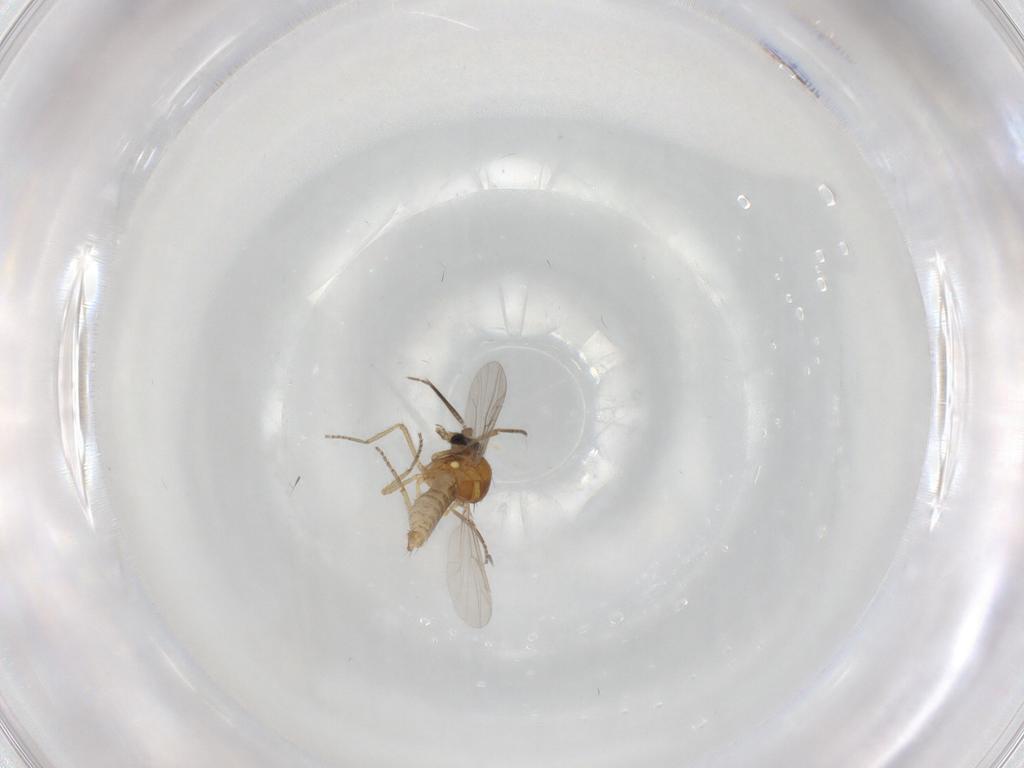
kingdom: Animalia
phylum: Arthropoda
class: Insecta
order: Diptera
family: Ceratopogonidae
